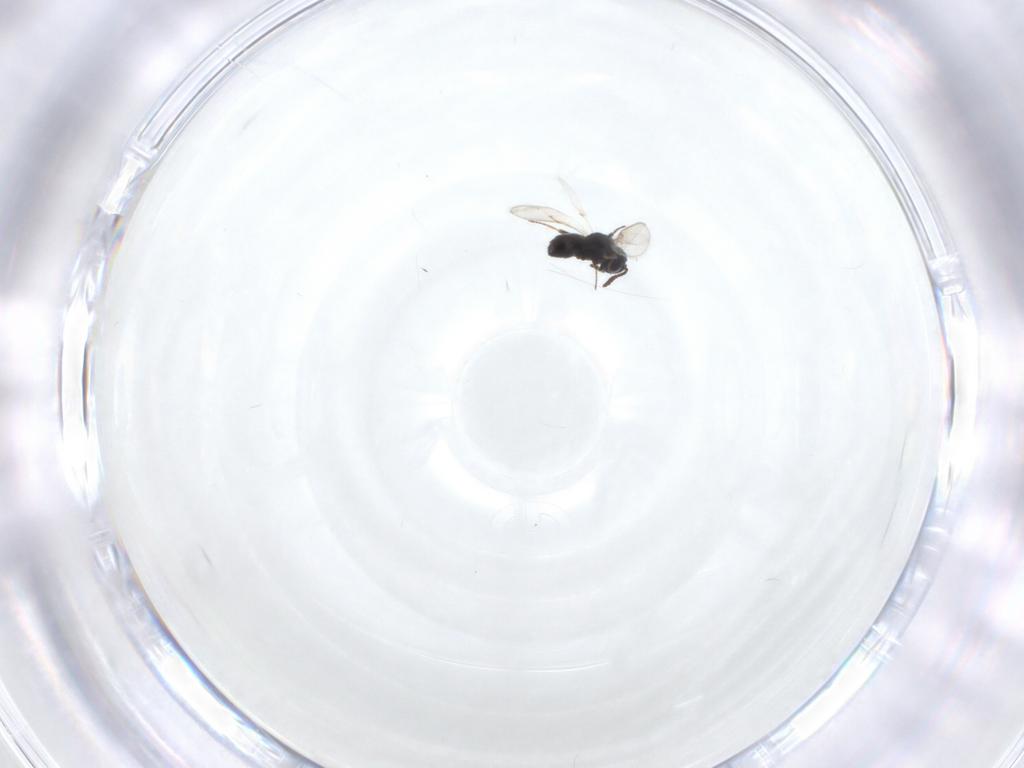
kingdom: Animalia
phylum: Arthropoda
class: Insecta
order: Hymenoptera
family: Scelionidae
